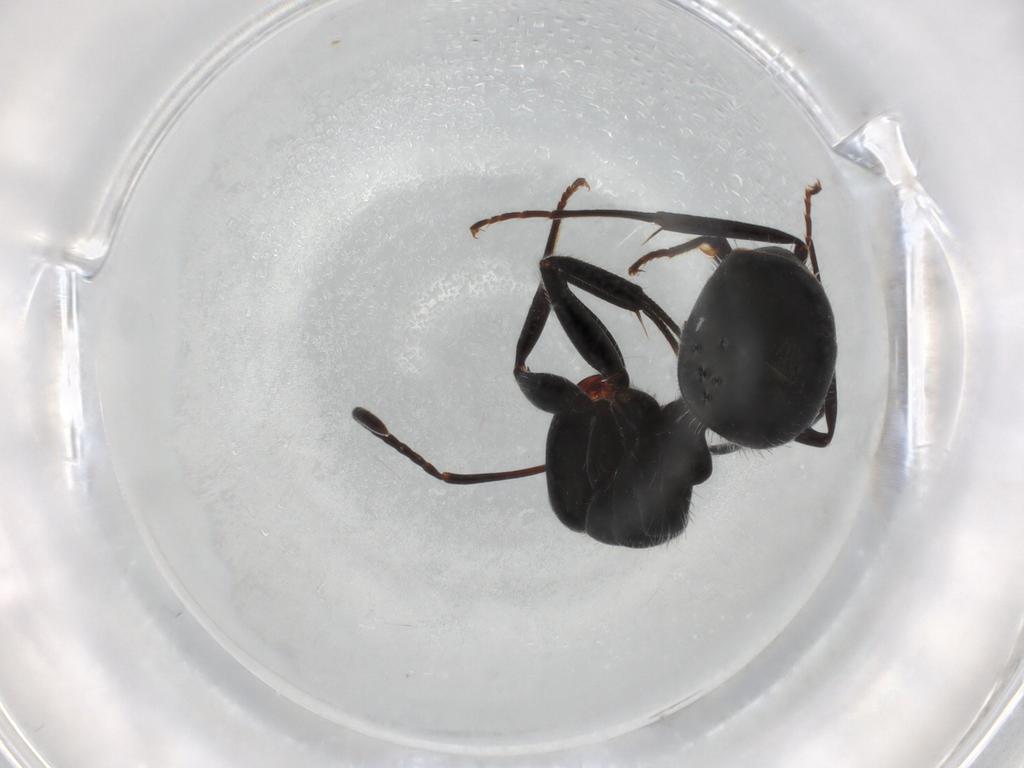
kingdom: Animalia
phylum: Arthropoda
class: Insecta
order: Hymenoptera
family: Formicidae
